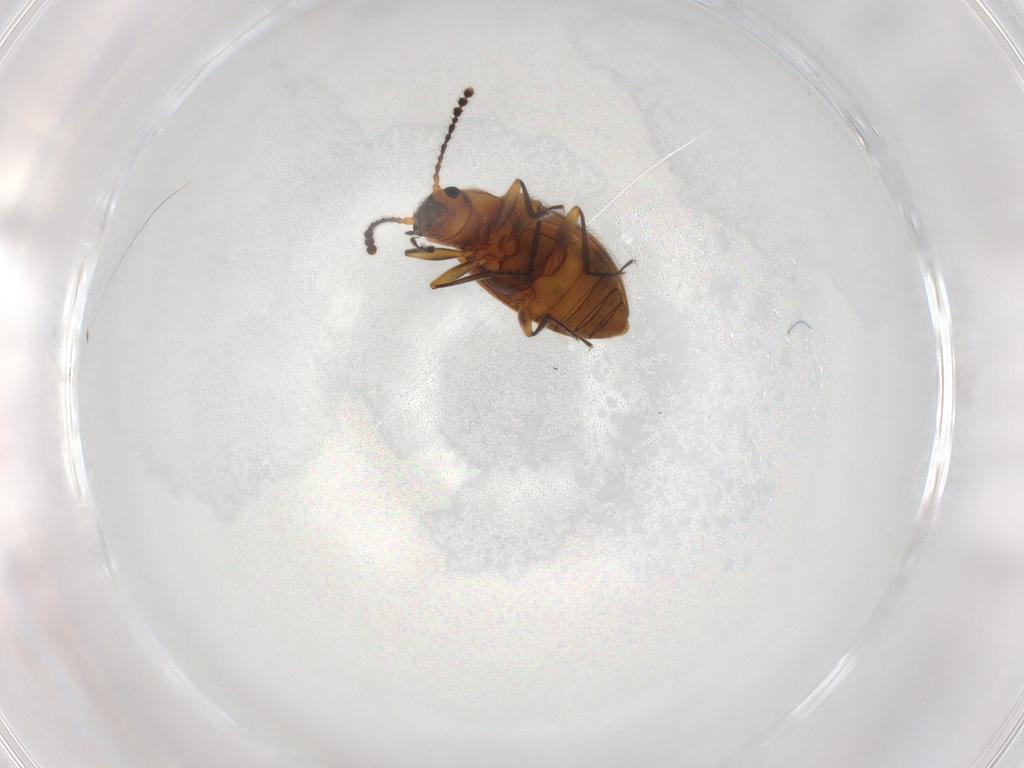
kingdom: Animalia
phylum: Arthropoda
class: Insecta
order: Coleoptera
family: Erotylidae
